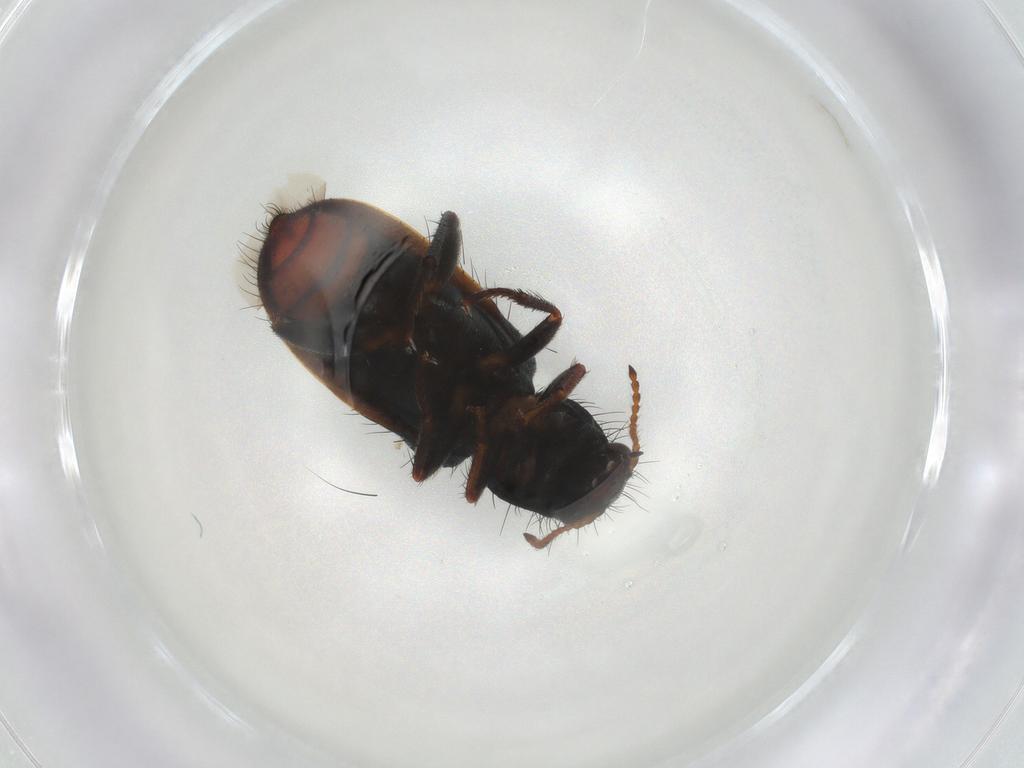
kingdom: Animalia
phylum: Arthropoda
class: Insecta
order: Coleoptera
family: Melyridae
